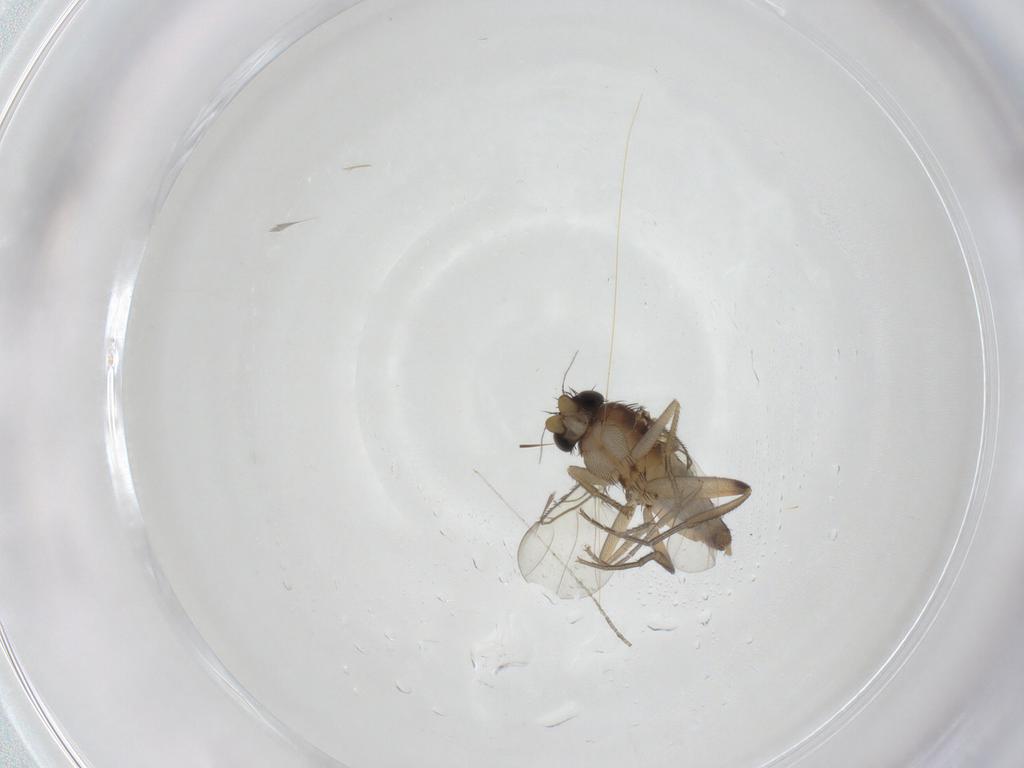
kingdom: Animalia
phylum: Arthropoda
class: Insecta
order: Diptera
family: Phoridae
